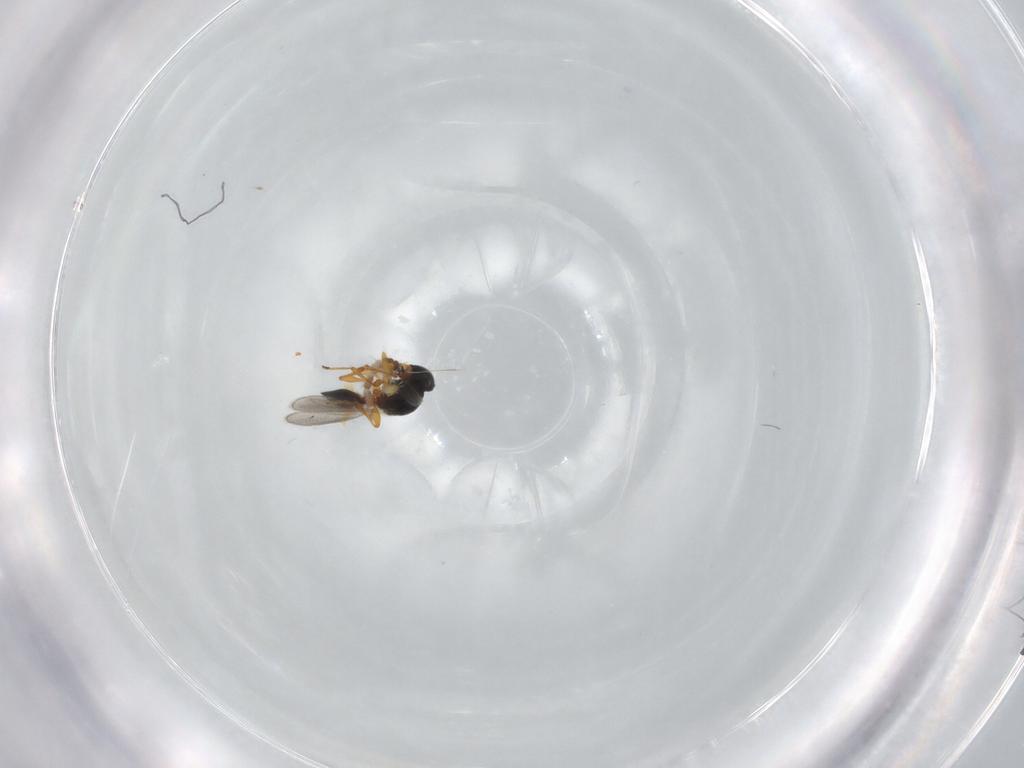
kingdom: Animalia
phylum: Arthropoda
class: Insecta
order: Hymenoptera
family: Platygastridae
